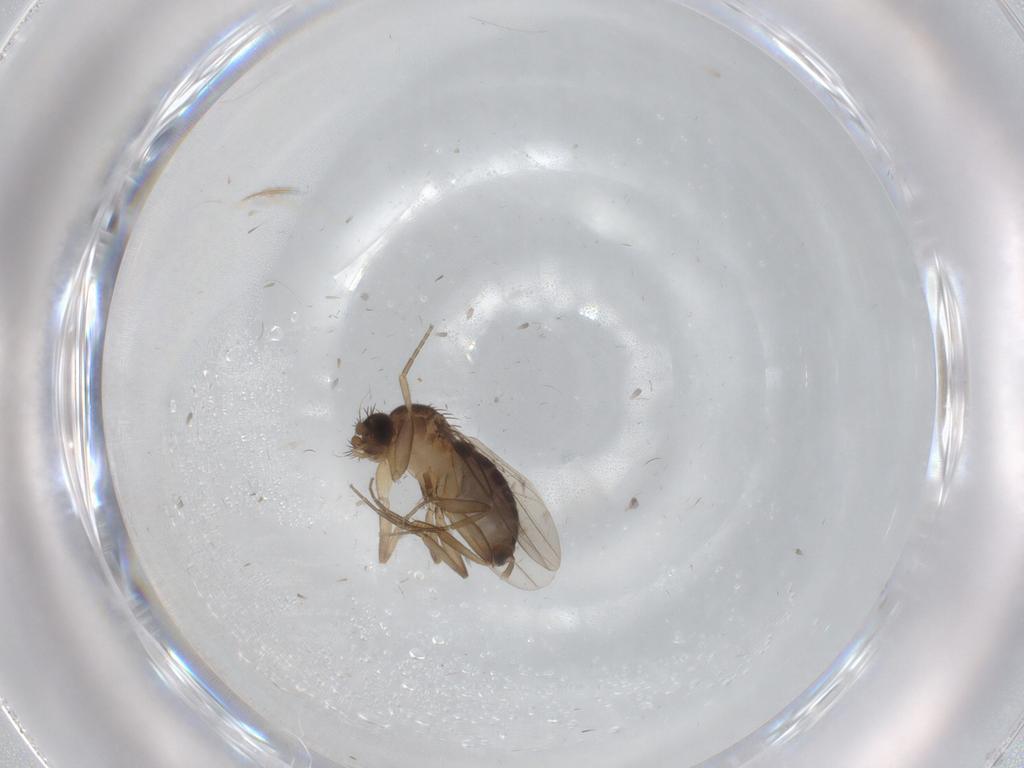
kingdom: Animalia
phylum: Arthropoda
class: Insecta
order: Diptera
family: Phoridae
